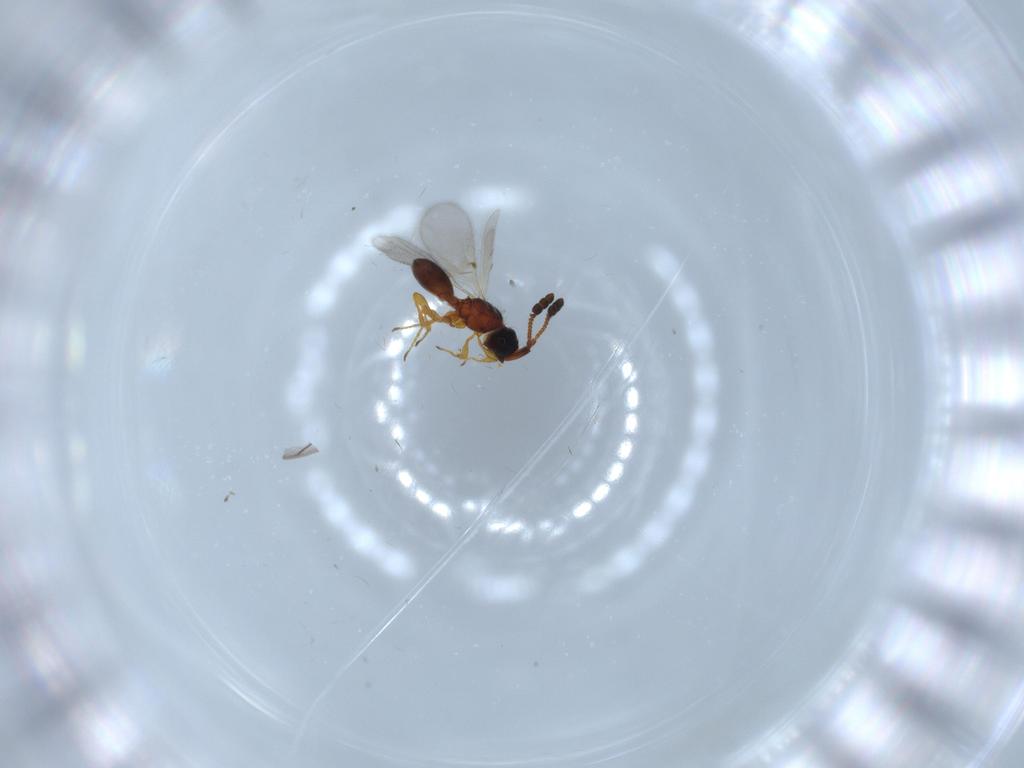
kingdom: Animalia
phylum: Arthropoda
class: Insecta
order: Hymenoptera
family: Diapriidae
